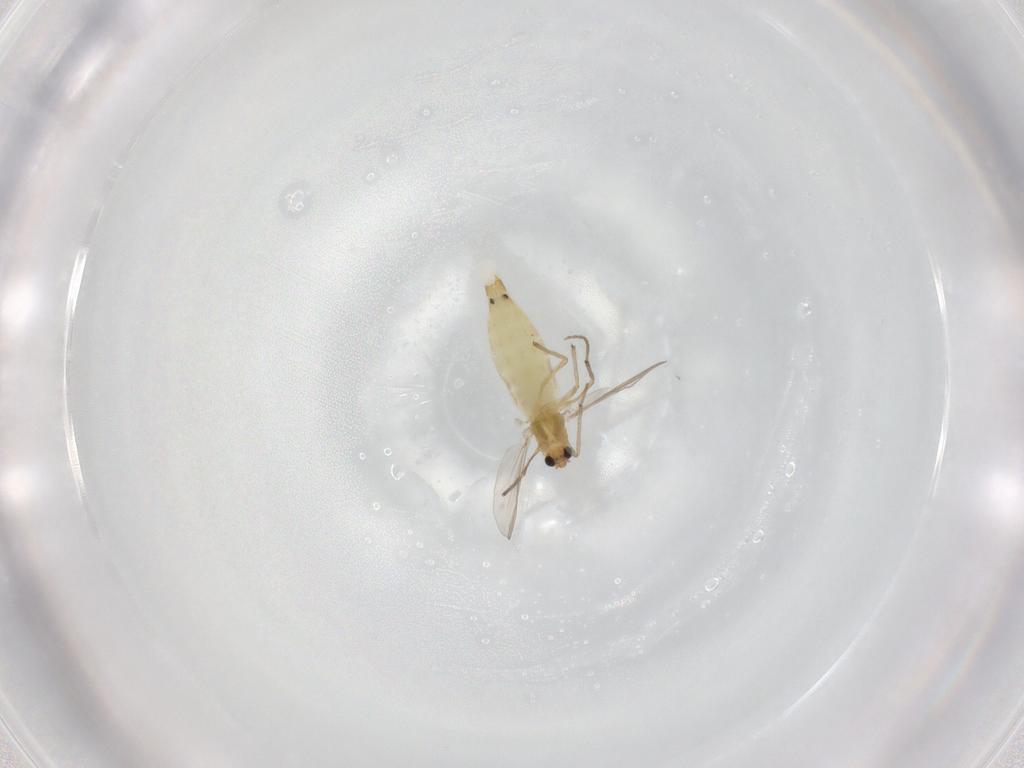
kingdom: Animalia
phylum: Arthropoda
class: Insecta
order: Diptera
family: Chironomidae
